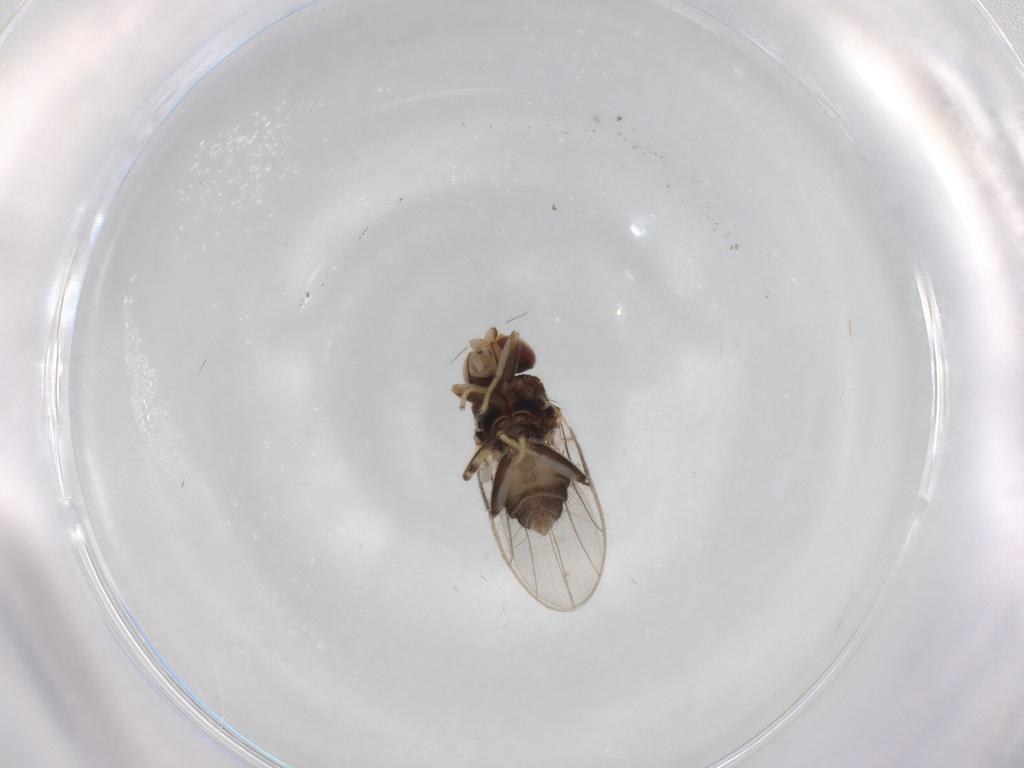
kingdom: Animalia
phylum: Arthropoda
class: Insecta
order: Diptera
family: Chloropidae
